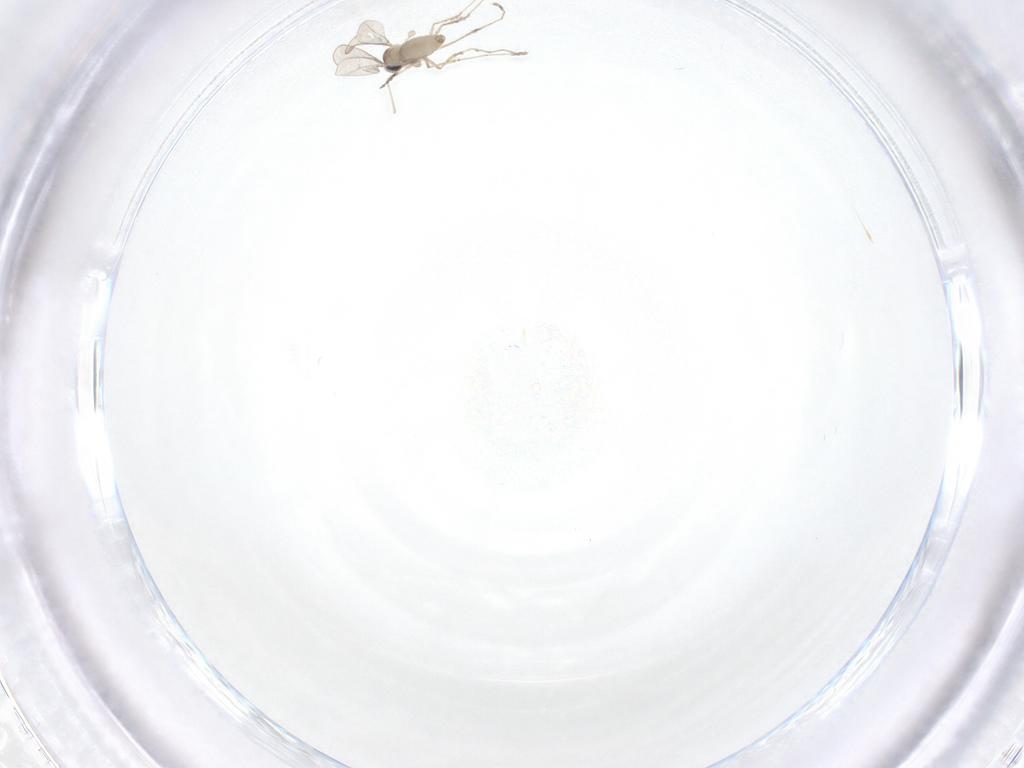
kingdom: Animalia
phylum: Arthropoda
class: Insecta
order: Diptera
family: Cecidomyiidae
